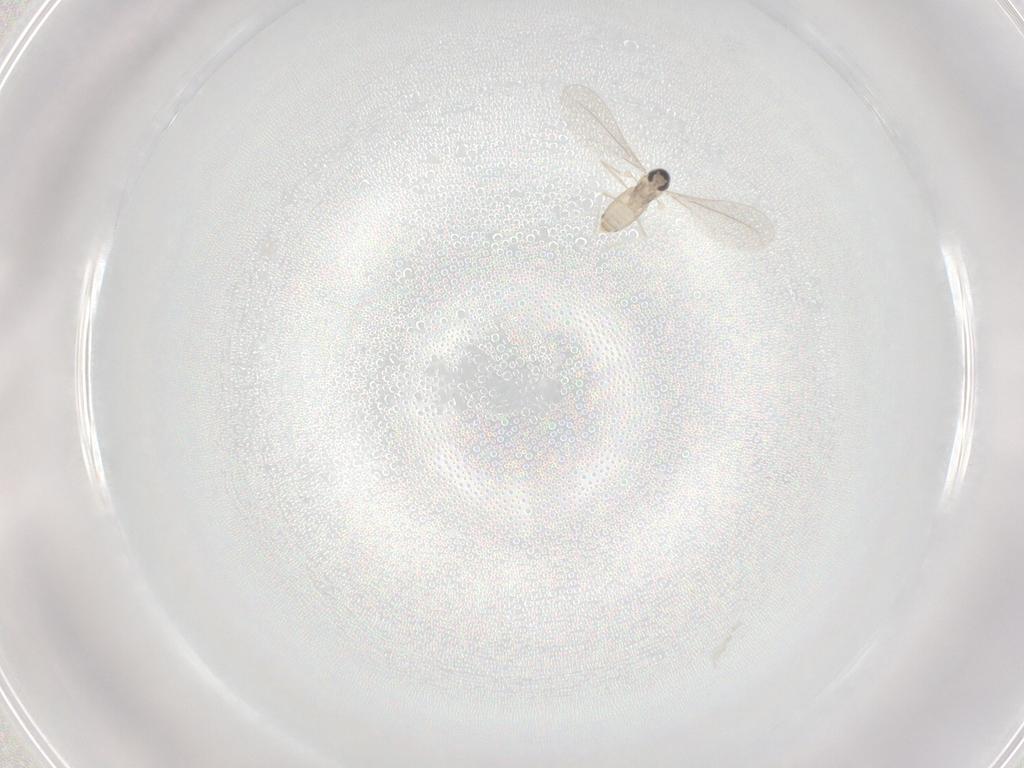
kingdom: Animalia
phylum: Arthropoda
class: Insecta
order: Diptera
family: Cecidomyiidae
